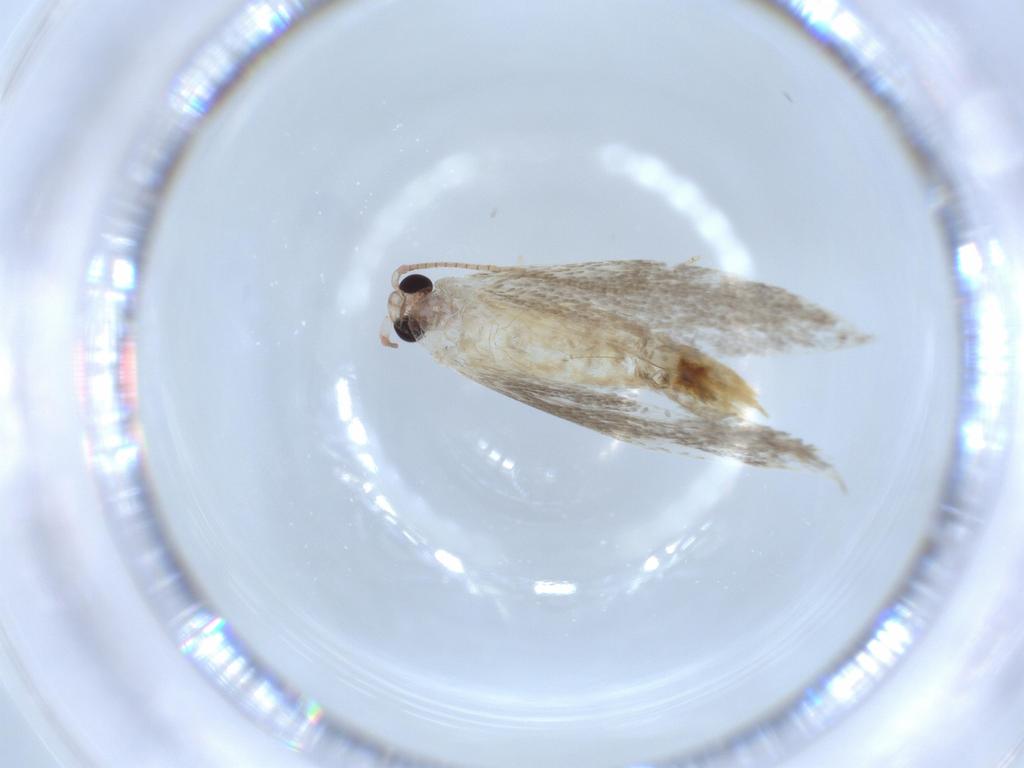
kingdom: Animalia
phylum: Arthropoda
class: Insecta
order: Lepidoptera
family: Tineidae
